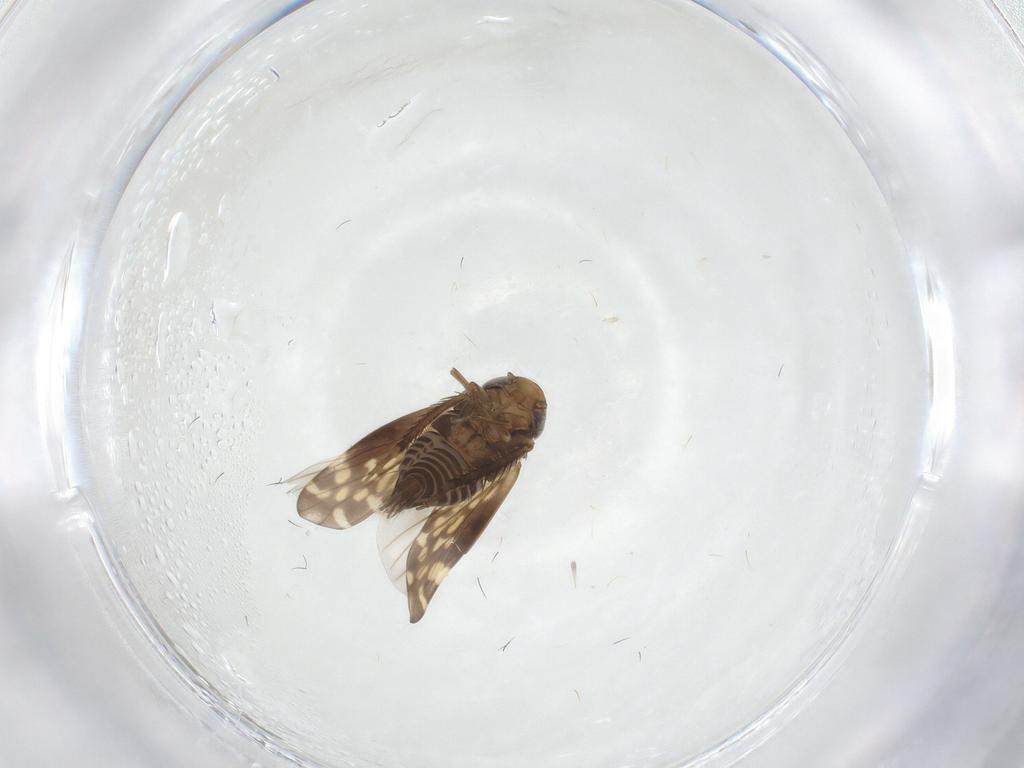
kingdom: Animalia
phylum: Arthropoda
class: Insecta
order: Hemiptera
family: Cicadellidae
